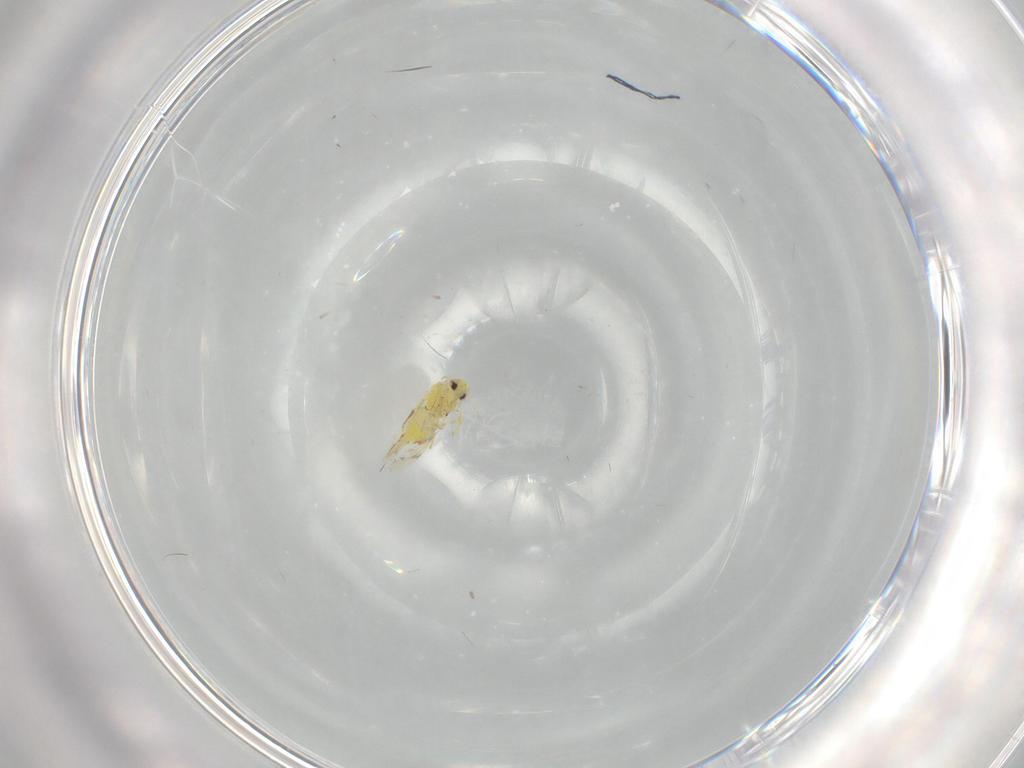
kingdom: Animalia
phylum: Arthropoda
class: Insecta
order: Hemiptera
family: Aleyrodidae
